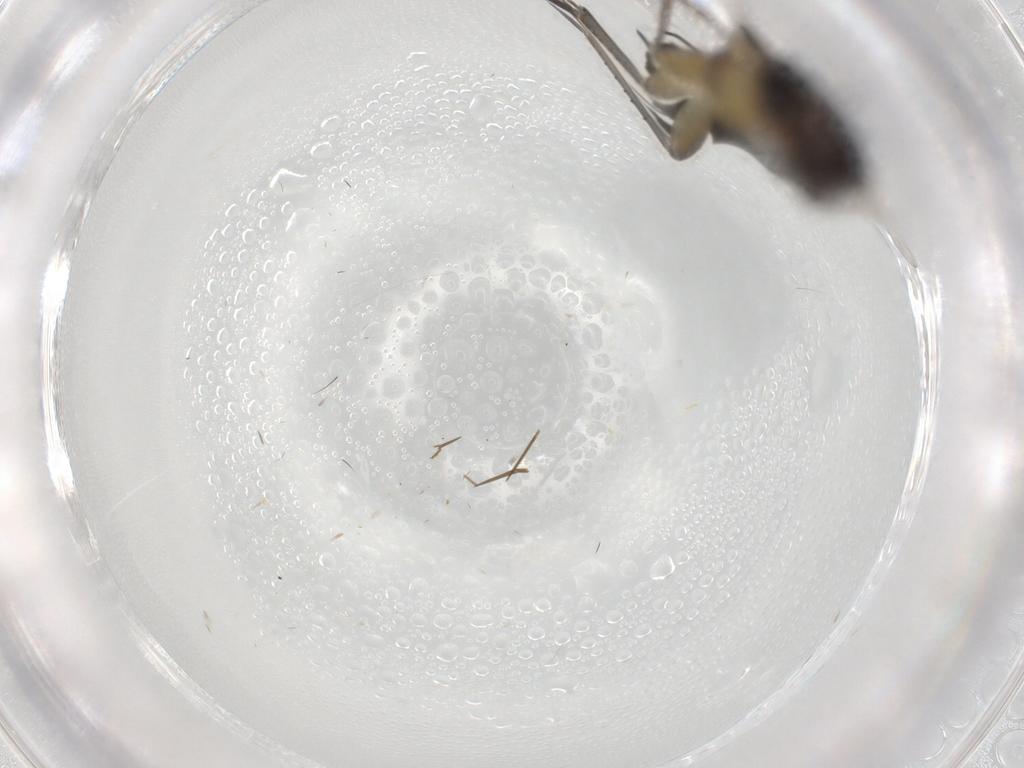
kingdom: Animalia
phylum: Arthropoda
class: Insecta
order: Diptera
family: Mycetophilidae
